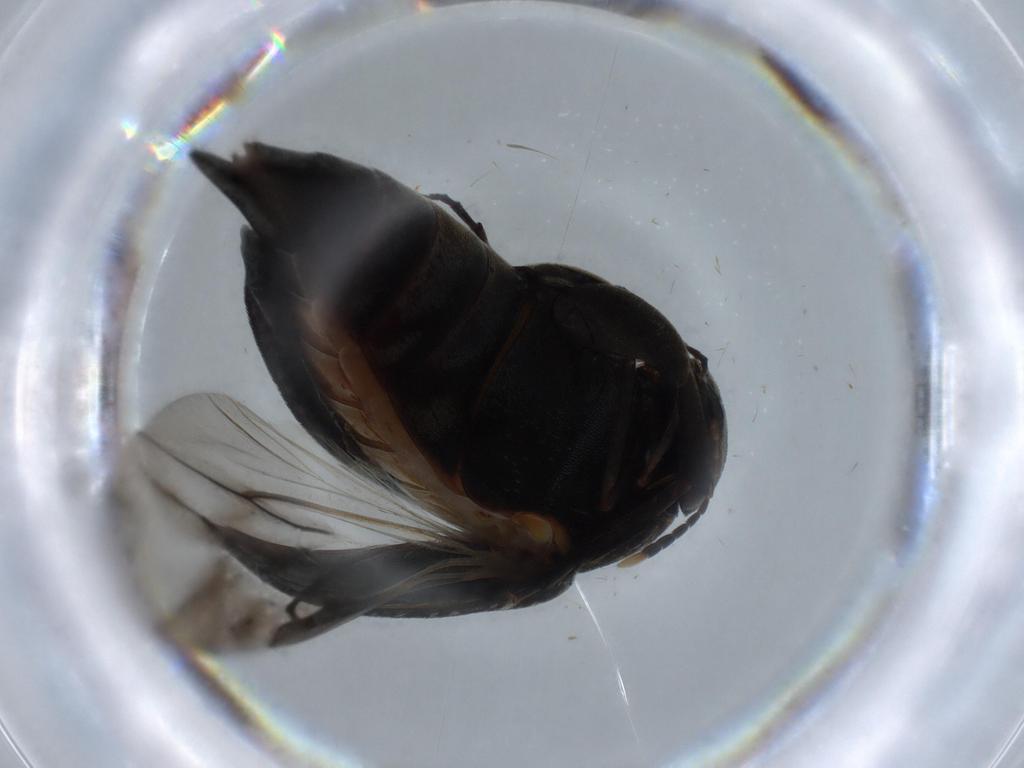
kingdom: Animalia
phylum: Arthropoda
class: Insecta
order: Coleoptera
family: Chrysomelidae
